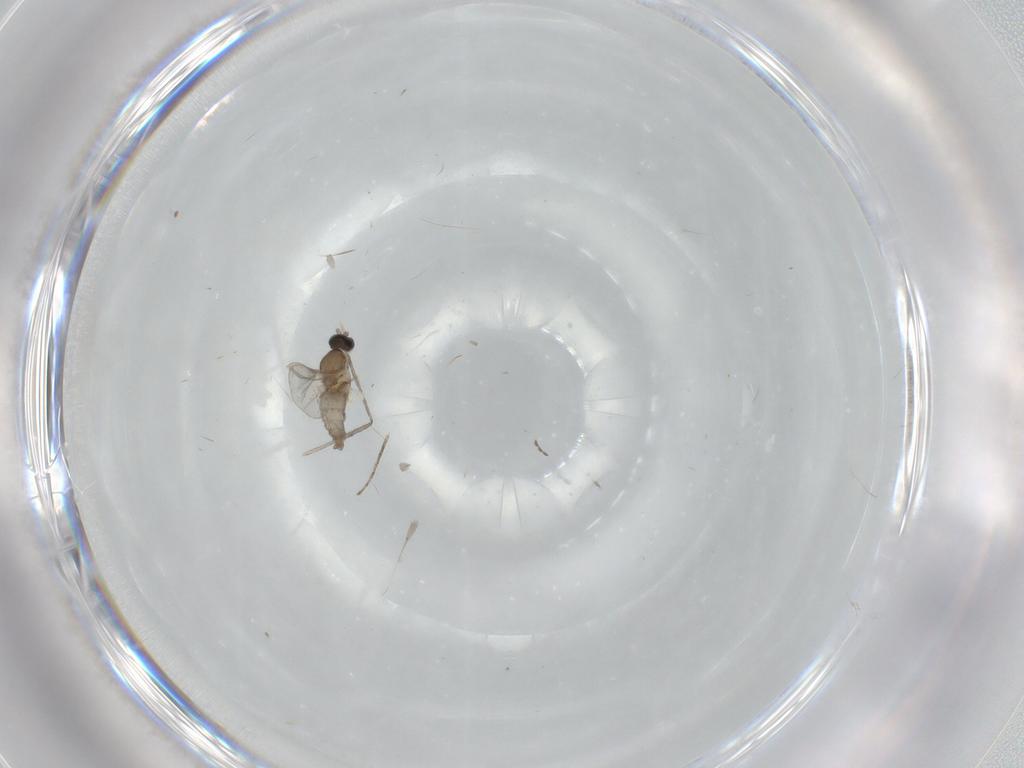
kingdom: Animalia
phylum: Arthropoda
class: Insecta
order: Diptera
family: Cecidomyiidae
